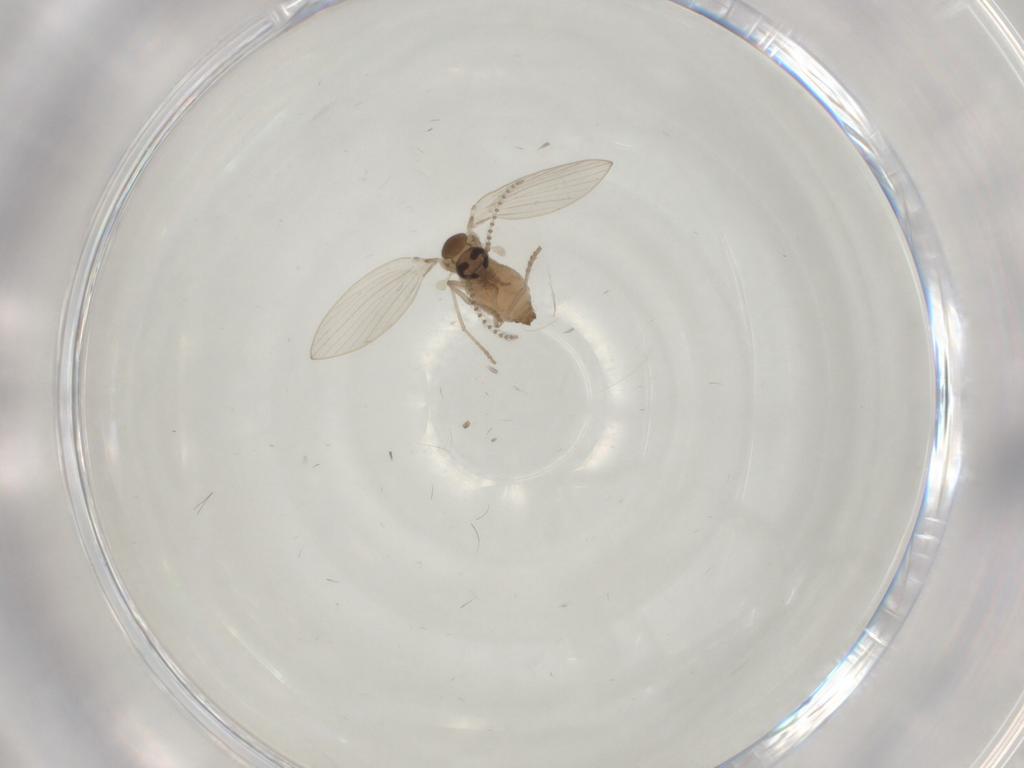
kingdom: Animalia
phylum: Arthropoda
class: Insecta
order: Diptera
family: Psychodidae
